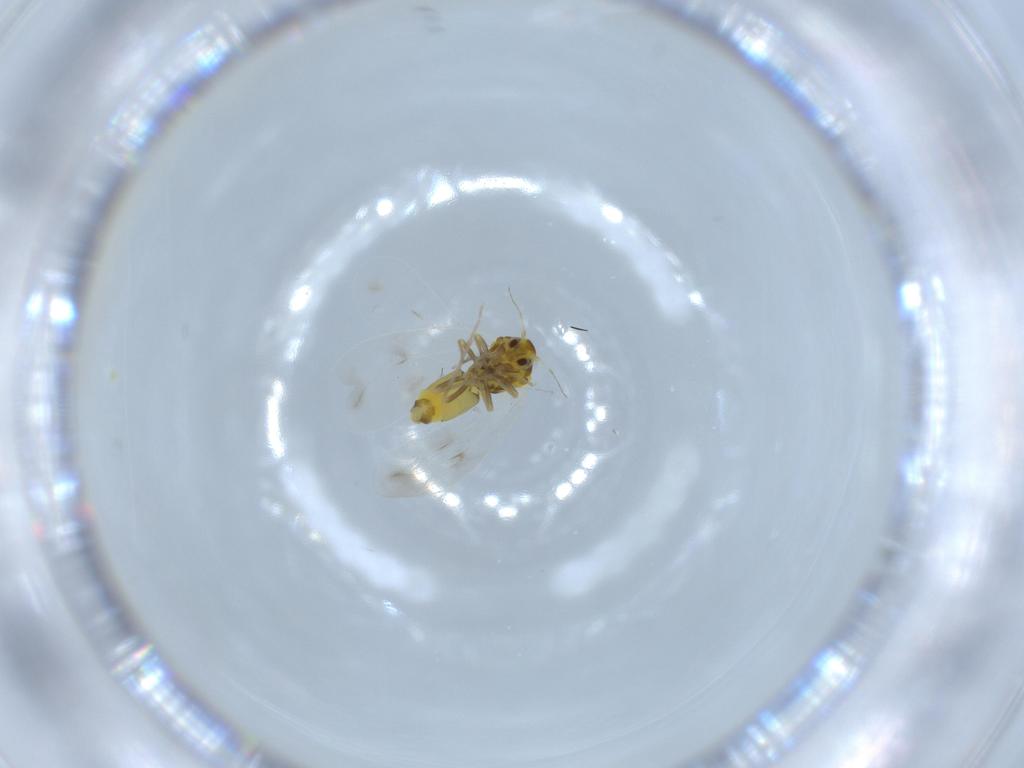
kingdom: Animalia
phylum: Arthropoda
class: Insecta
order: Hemiptera
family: Aleyrodidae
